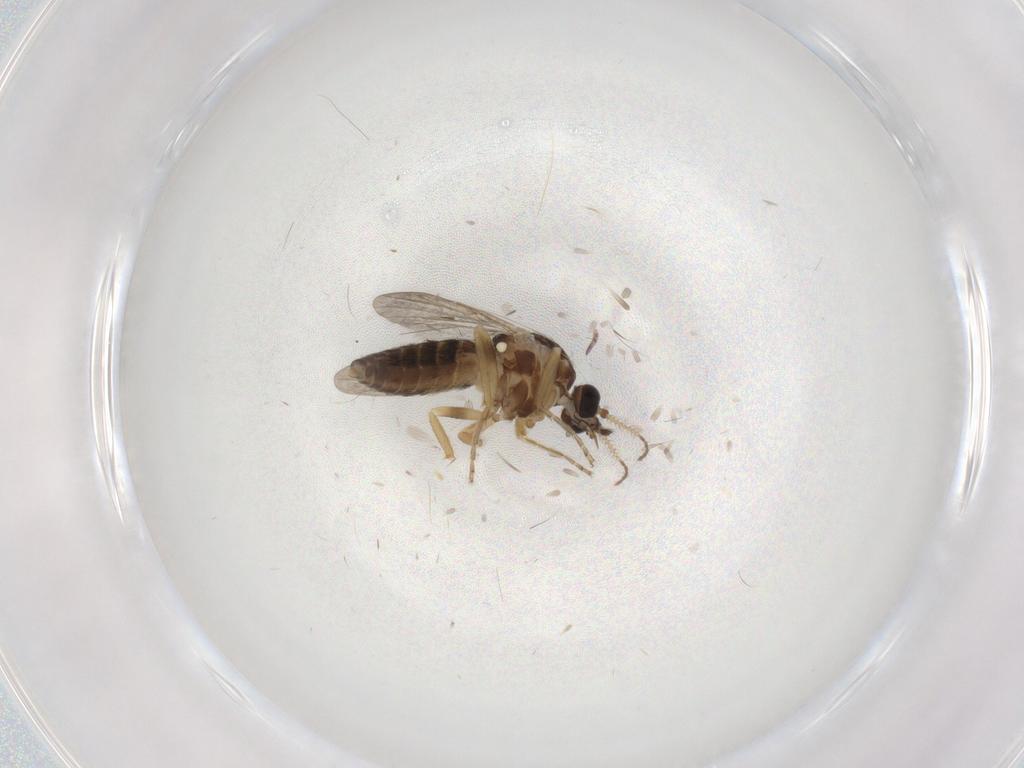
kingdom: Animalia
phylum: Arthropoda
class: Insecta
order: Diptera
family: Ceratopogonidae
